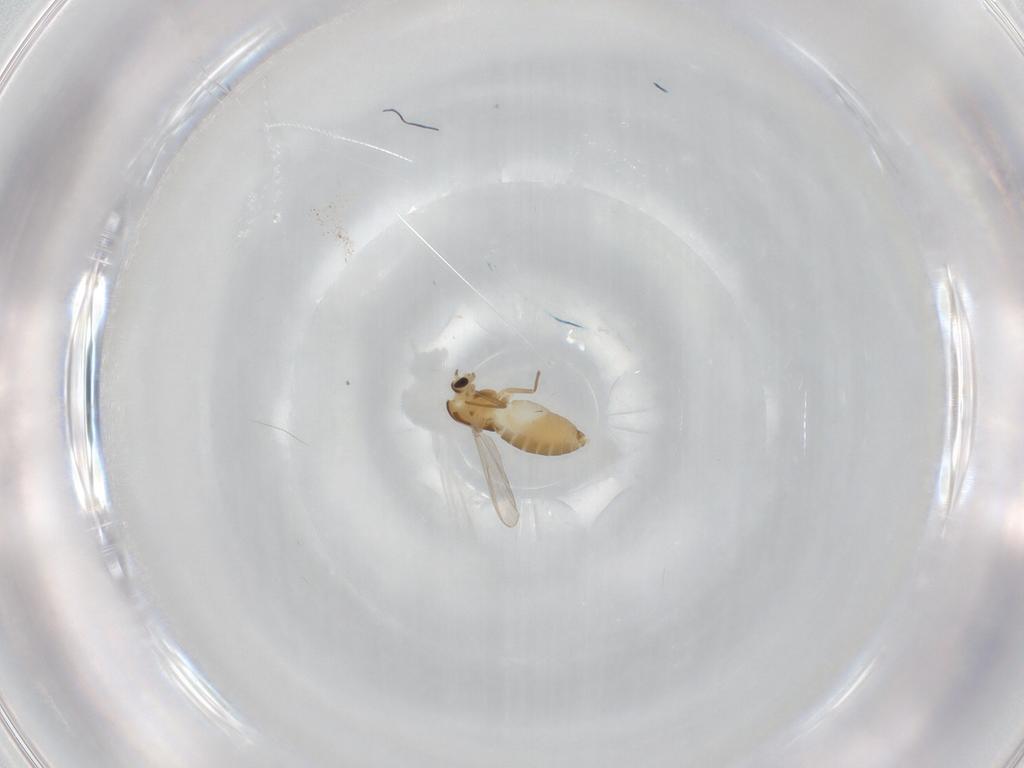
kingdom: Animalia
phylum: Arthropoda
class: Insecta
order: Diptera
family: Chironomidae
